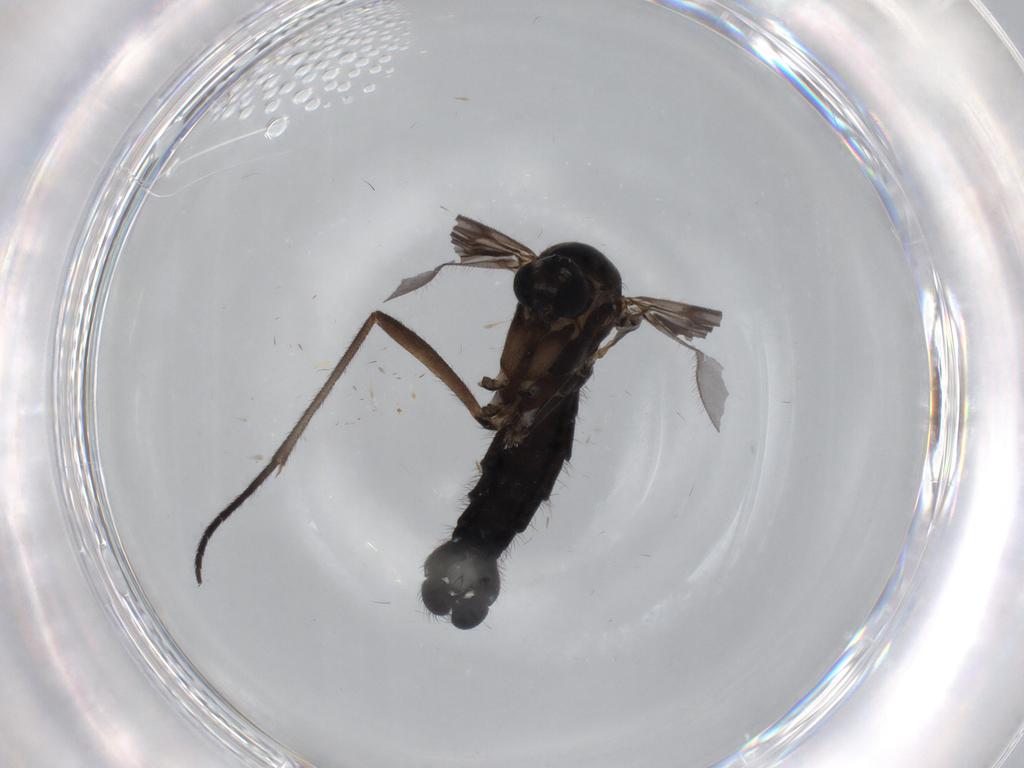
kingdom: Animalia
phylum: Arthropoda
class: Insecta
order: Diptera
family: Sciaridae
